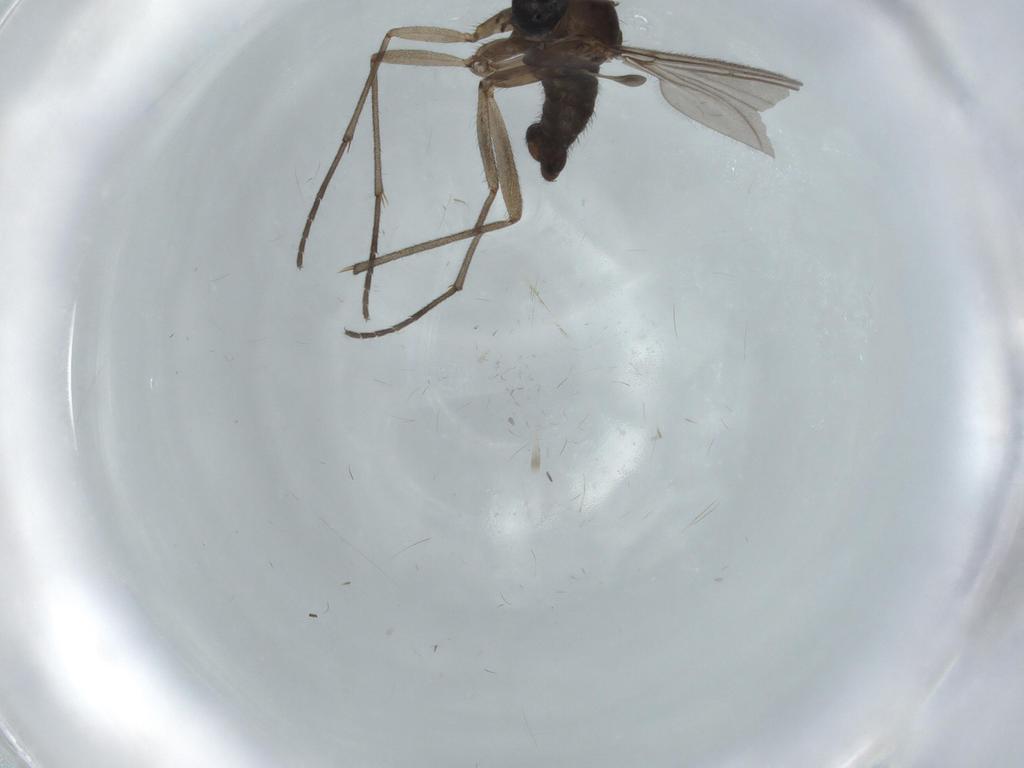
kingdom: Animalia
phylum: Arthropoda
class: Insecta
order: Diptera
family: Sciaridae
